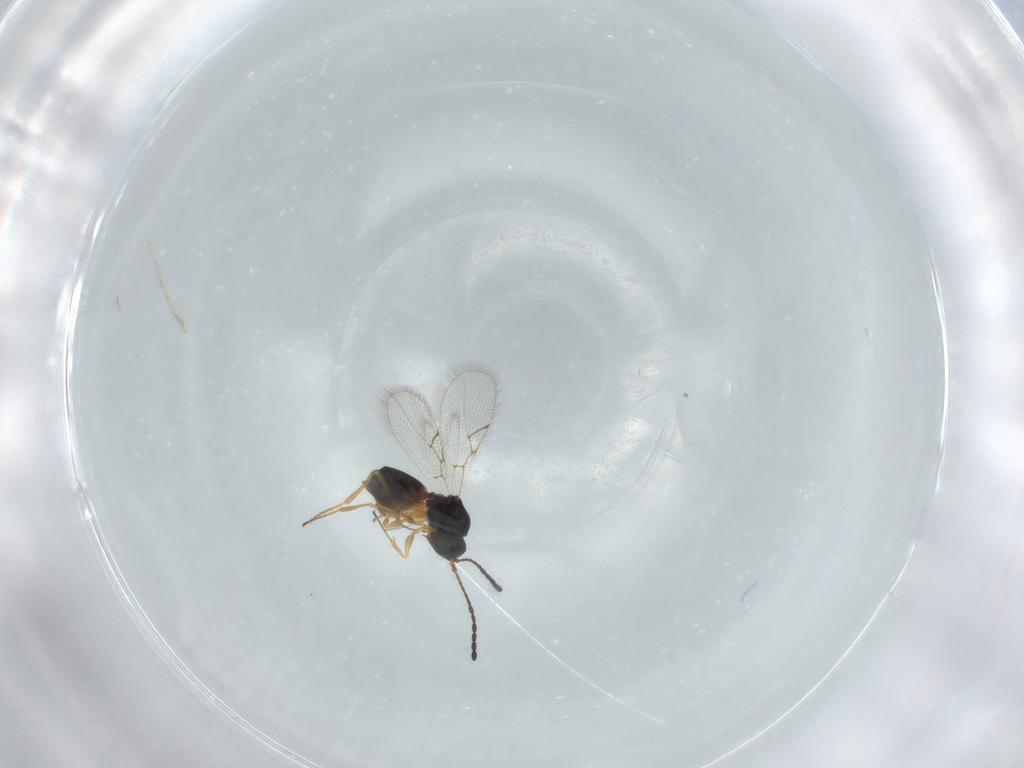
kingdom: Animalia
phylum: Arthropoda
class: Insecta
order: Hymenoptera
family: Figitidae
